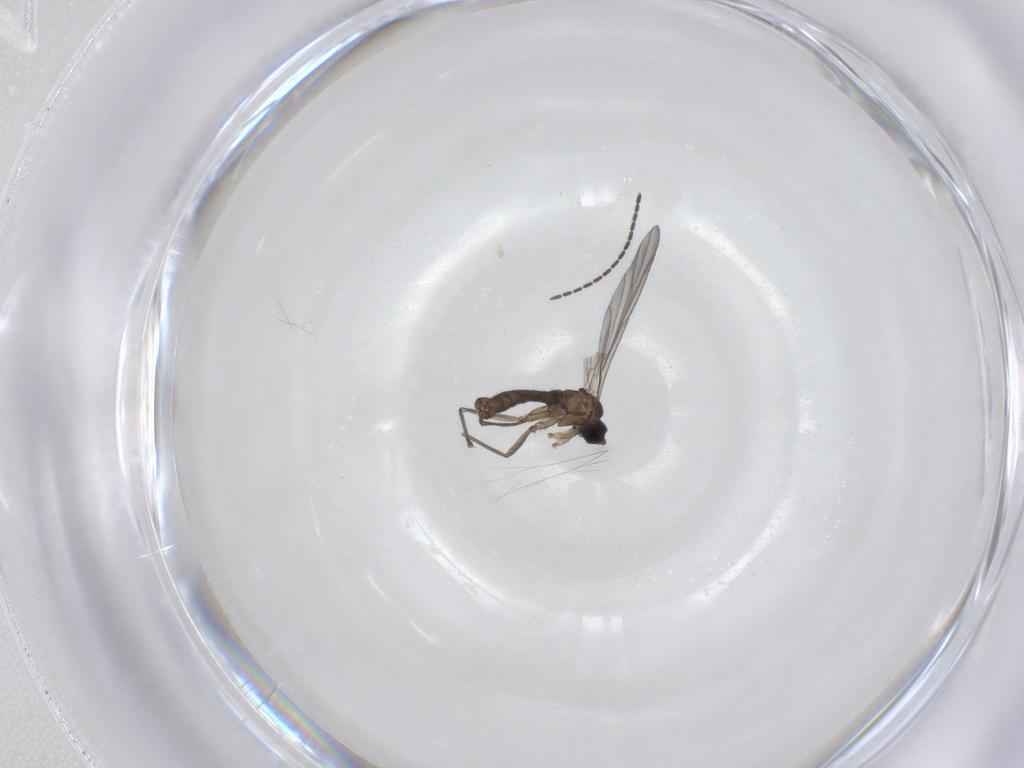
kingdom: Animalia
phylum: Arthropoda
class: Insecta
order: Diptera
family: Sciaridae
